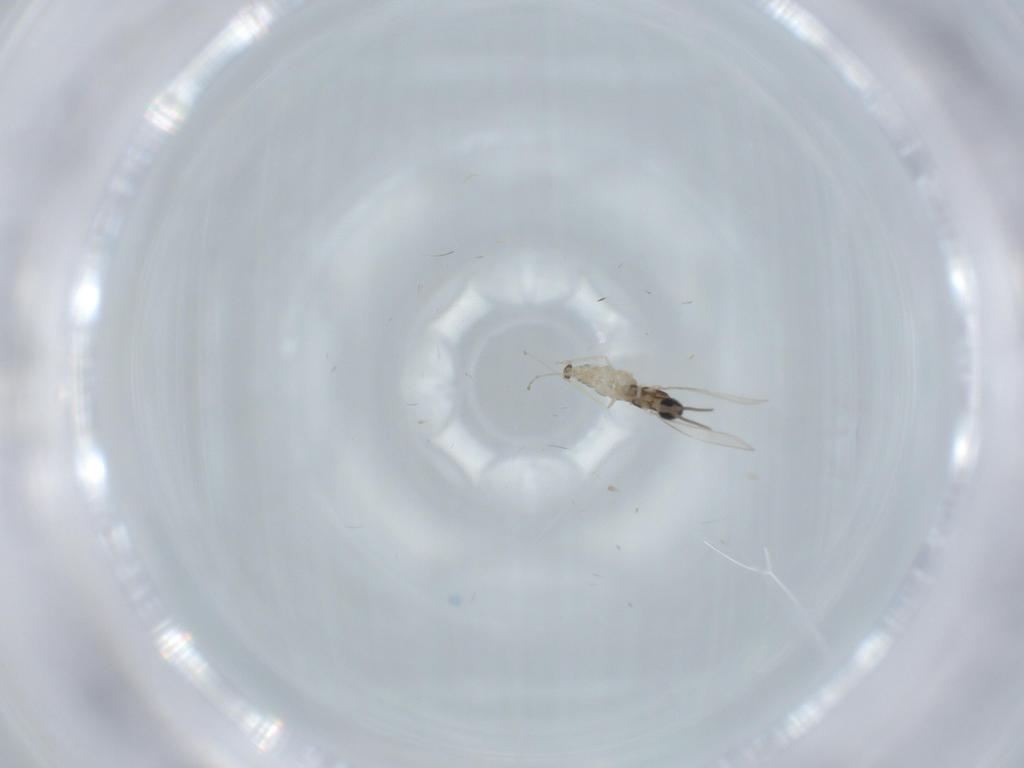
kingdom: Animalia
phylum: Arthropoda
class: Insecta
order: Diptera
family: Cecidomyiidae
